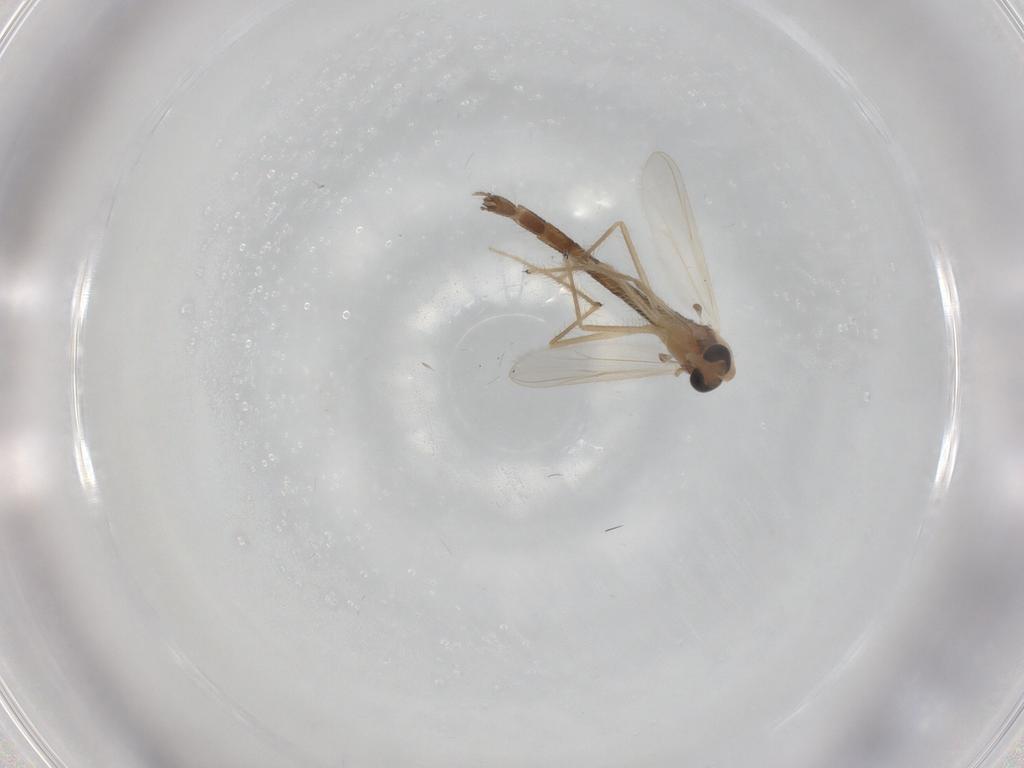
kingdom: Animalia
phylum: Arthropoda
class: Insecta
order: Diptera
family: Chironomidae
